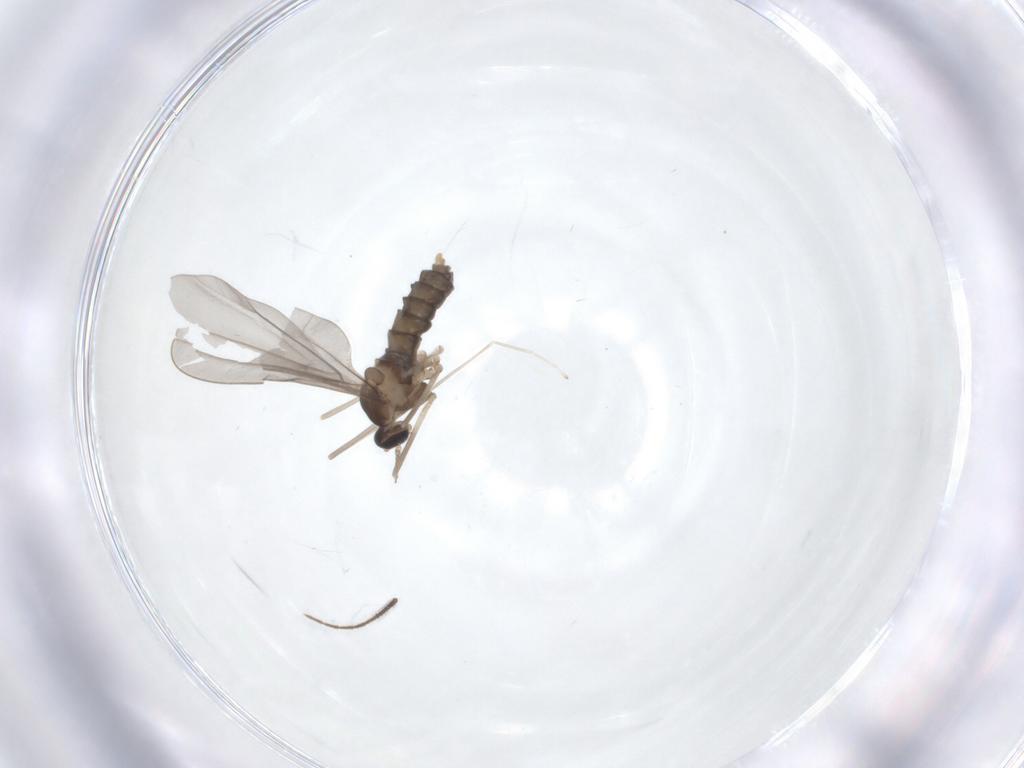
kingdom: Animalia
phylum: Arthropoda
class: Insecta
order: Diptera
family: Cecidomyiidae
